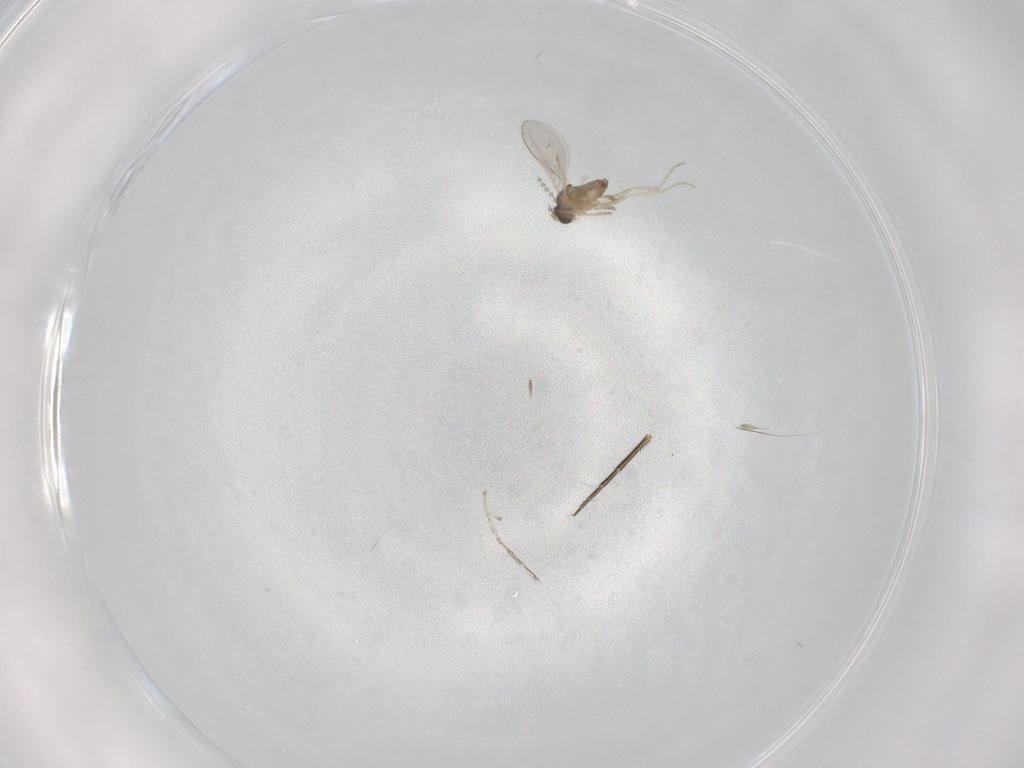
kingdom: Animalia
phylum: Arthropoda
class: Insecta
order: Diptera
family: Cecidomyiidae
